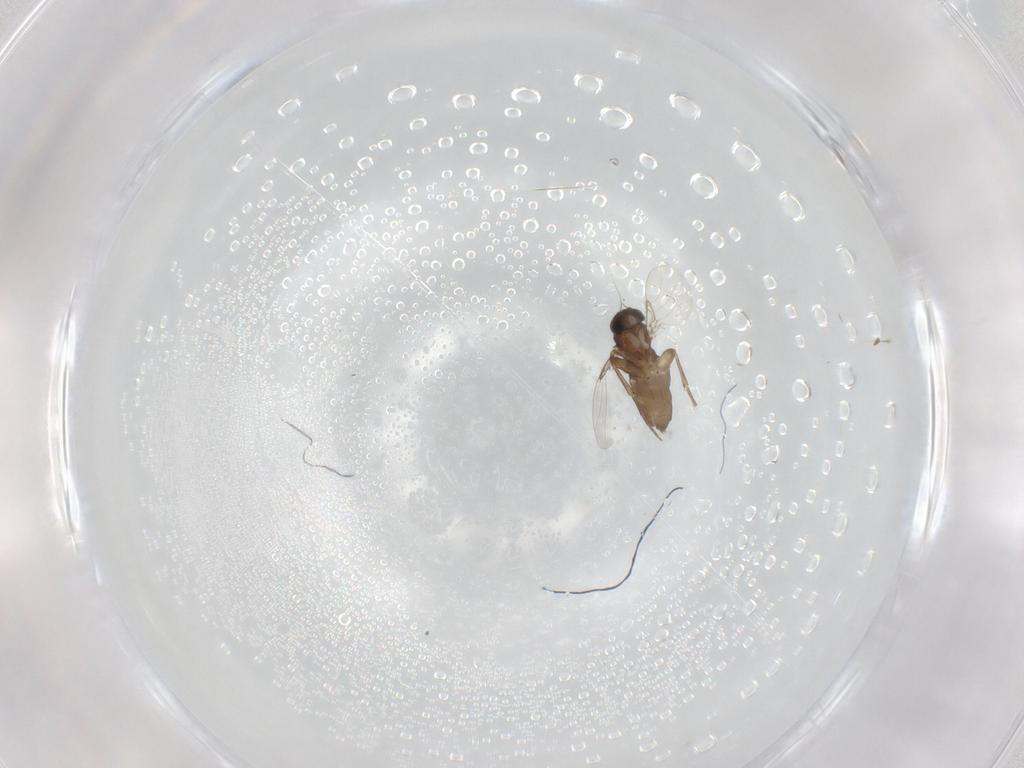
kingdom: Animalia
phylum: Arthropoda
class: Insecta
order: Diptera
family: Phoridae
